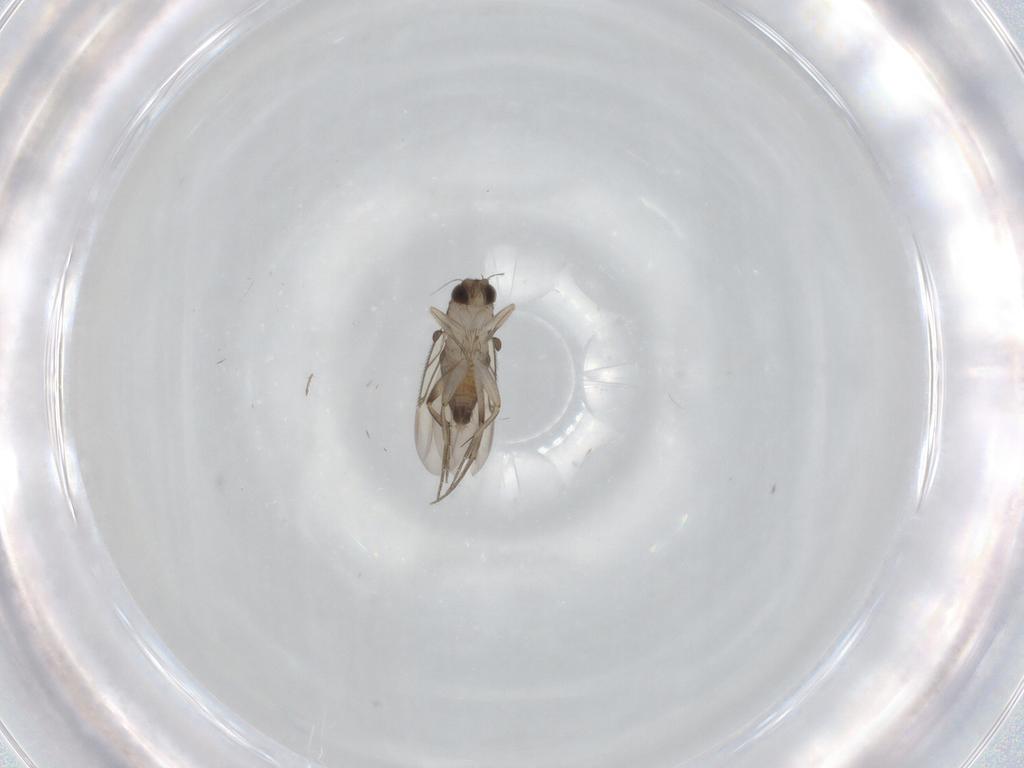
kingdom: Animalia
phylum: Arthropoda
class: Insecta
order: Diptera
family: Phoridae
